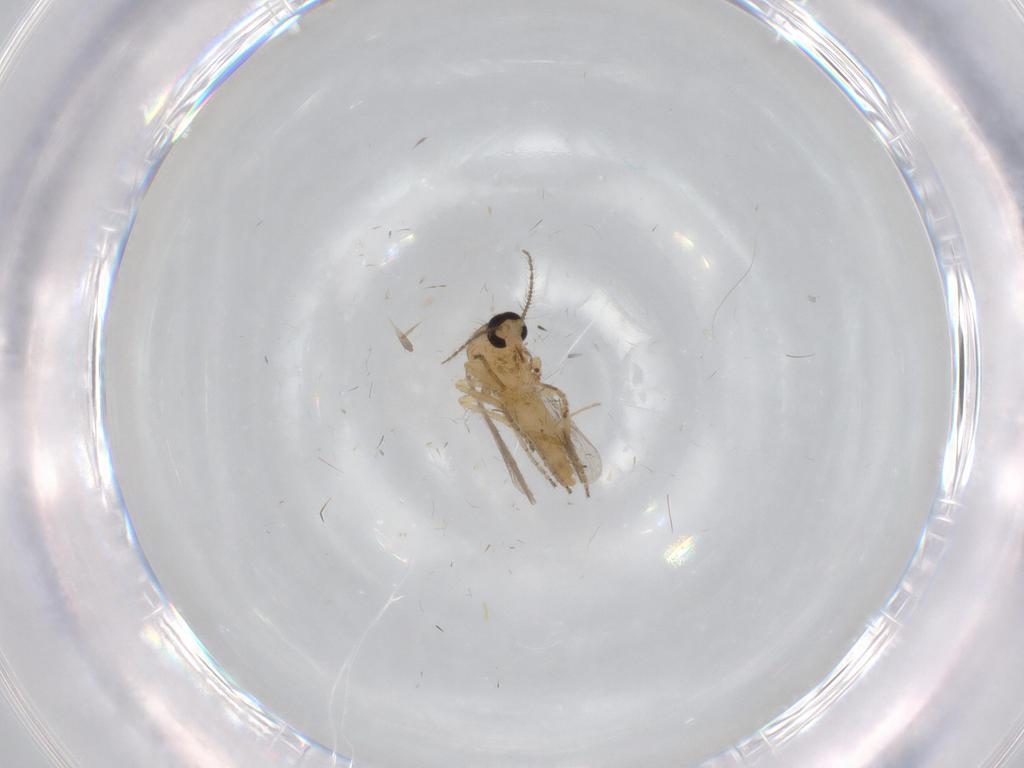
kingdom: Animalia
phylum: Arthropoda
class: Insecta
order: Diptera
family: Ceratopogonidae
